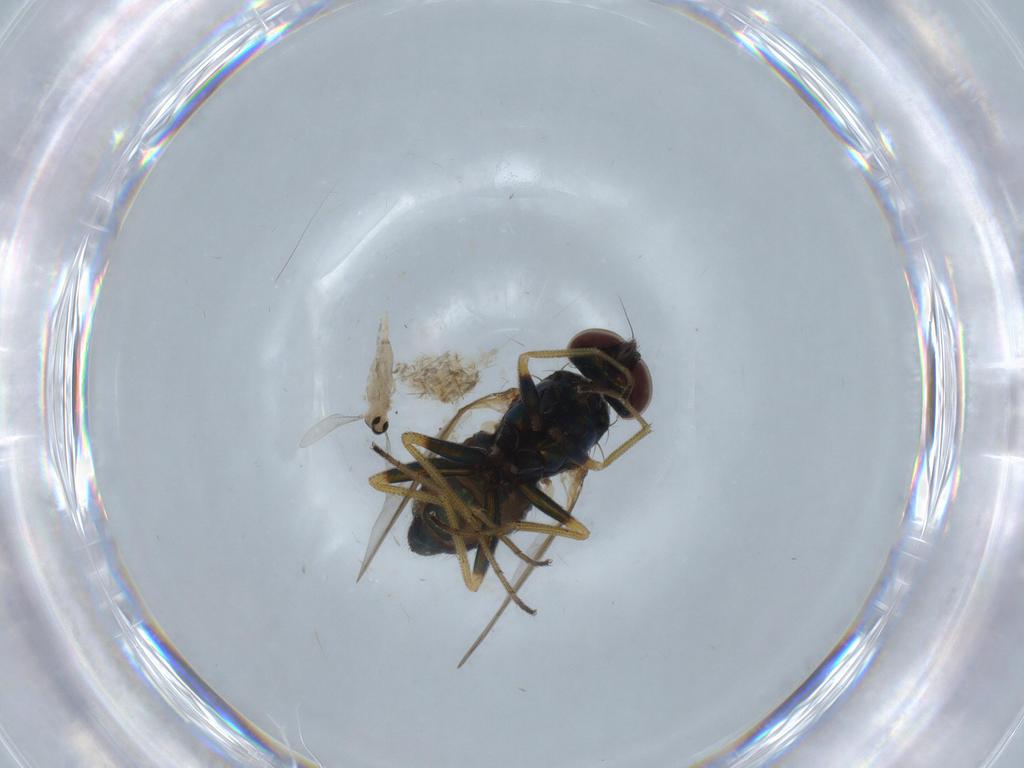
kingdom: Animalia
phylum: Arthropoda
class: Insecta
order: Diptera
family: Dolichopodidae
